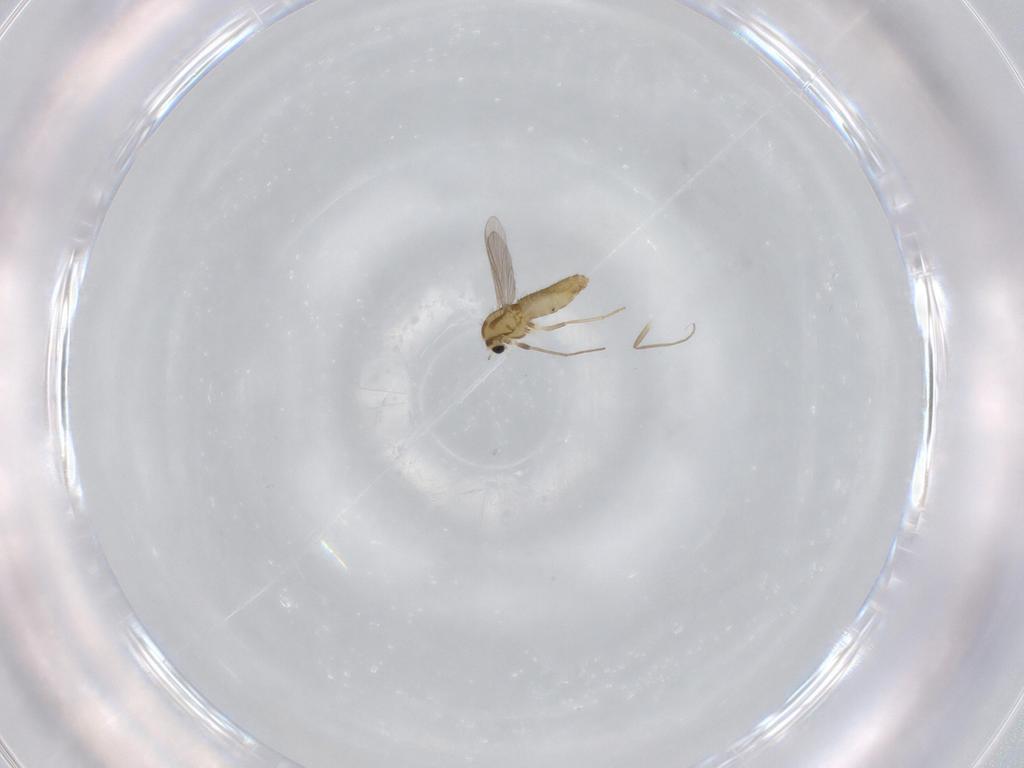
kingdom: Animalia
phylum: Arthropoda
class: Insecta
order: Diptera
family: Chironomidae
